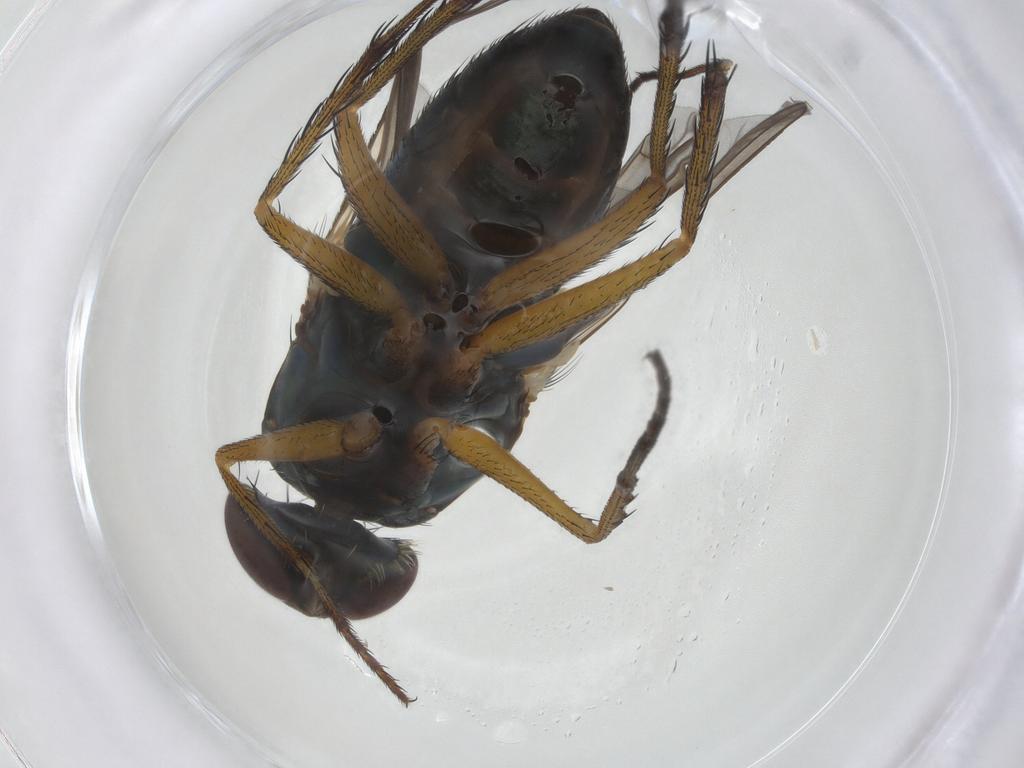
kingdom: Animalia
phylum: Arthropoda
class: Insecta
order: Diptera
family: Dolichopodidae
